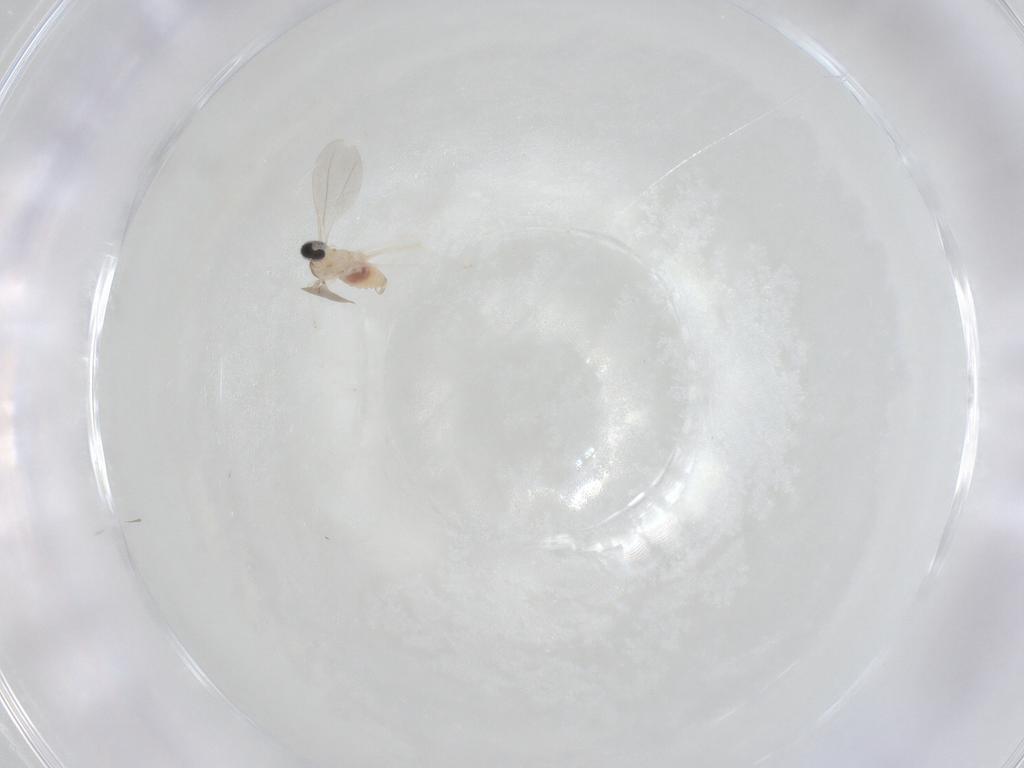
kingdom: Animalia
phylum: Arthropoda
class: Insecta
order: Diptera
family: Cecidomyiidae
